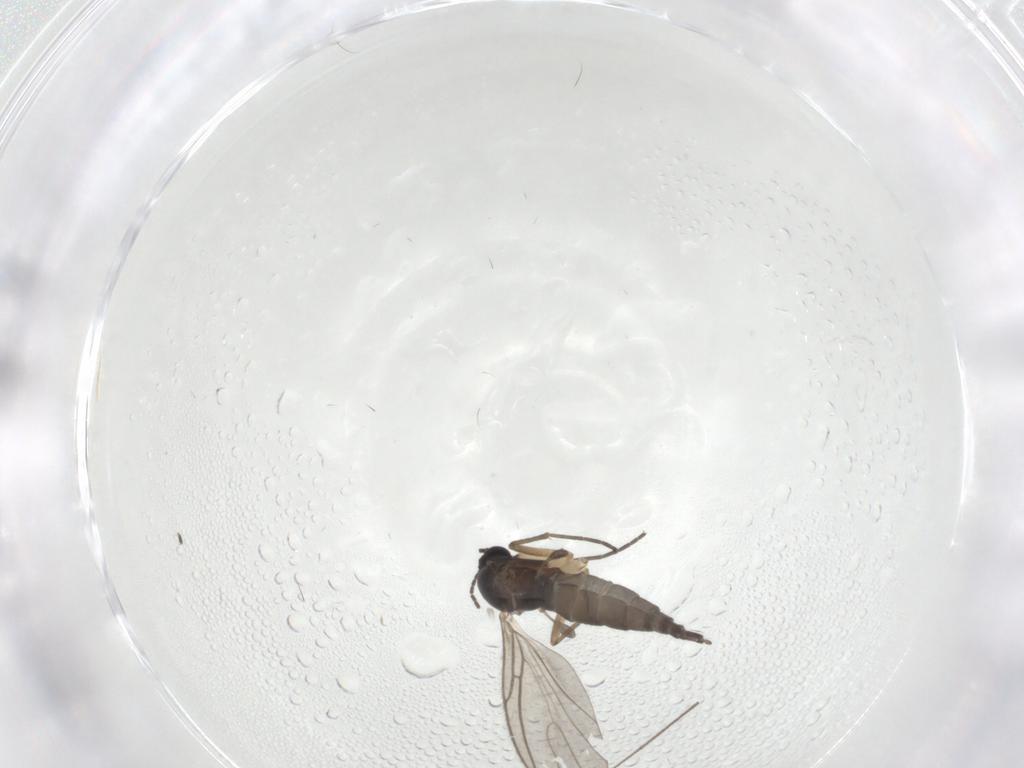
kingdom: Animalia
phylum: Arthropoda
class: Insecta
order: Diptera
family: Sciaridae
